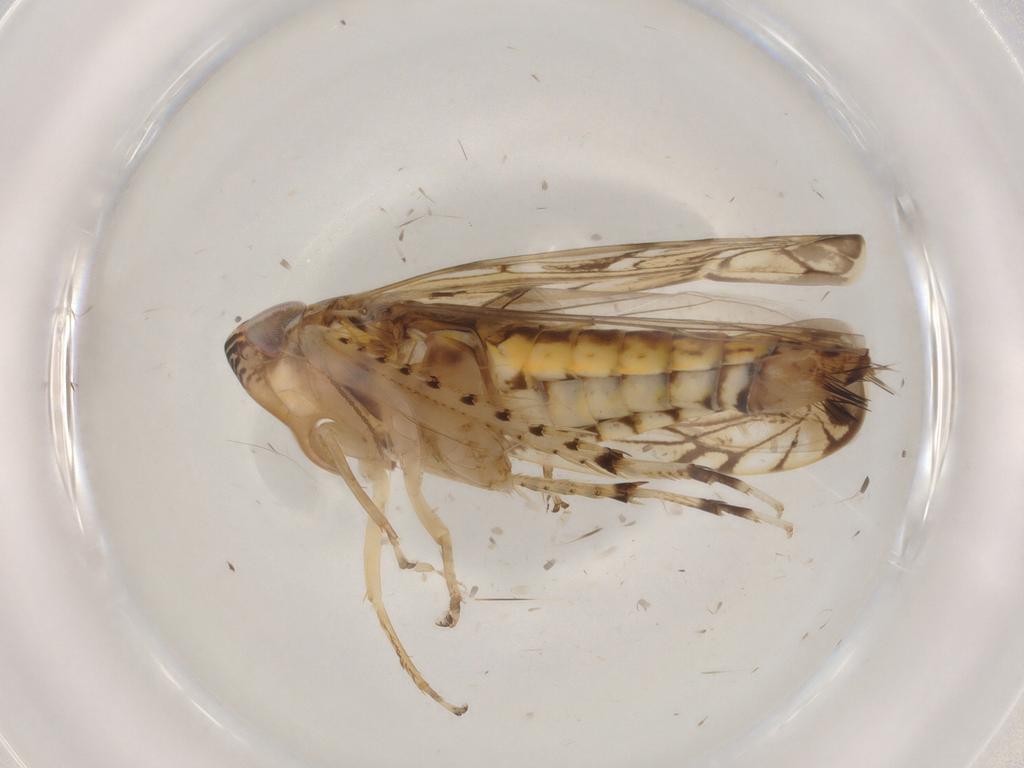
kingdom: Animalia
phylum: Arthropoda
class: Insecta
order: Hemiptera
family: Cicadellidae
